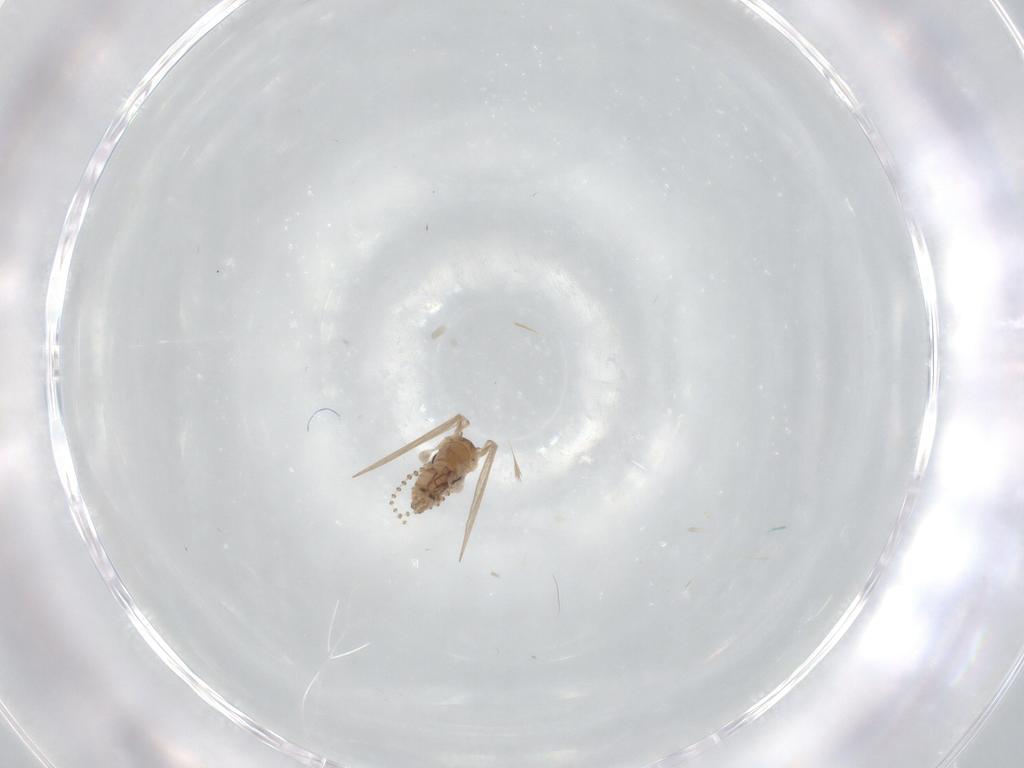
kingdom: Animalia
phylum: Arthropoda
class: Insecta
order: Diptera
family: Psychodidae
